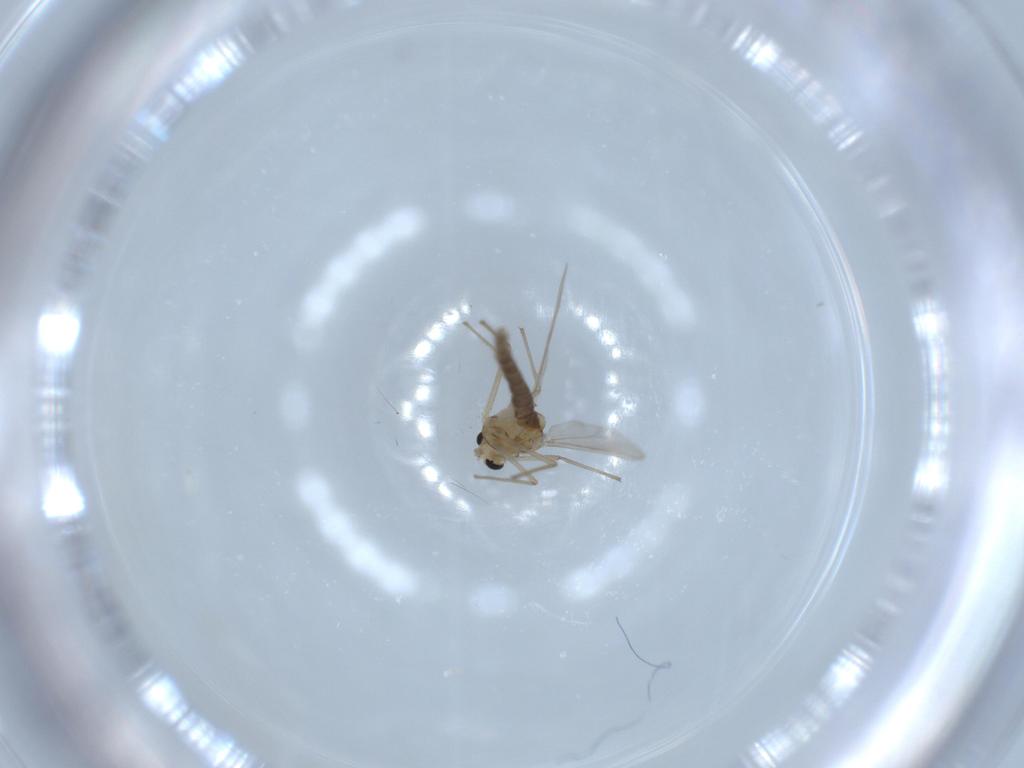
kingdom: Animalia
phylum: Arthropoda
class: Insecta
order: Diptera
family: Chironomidae
